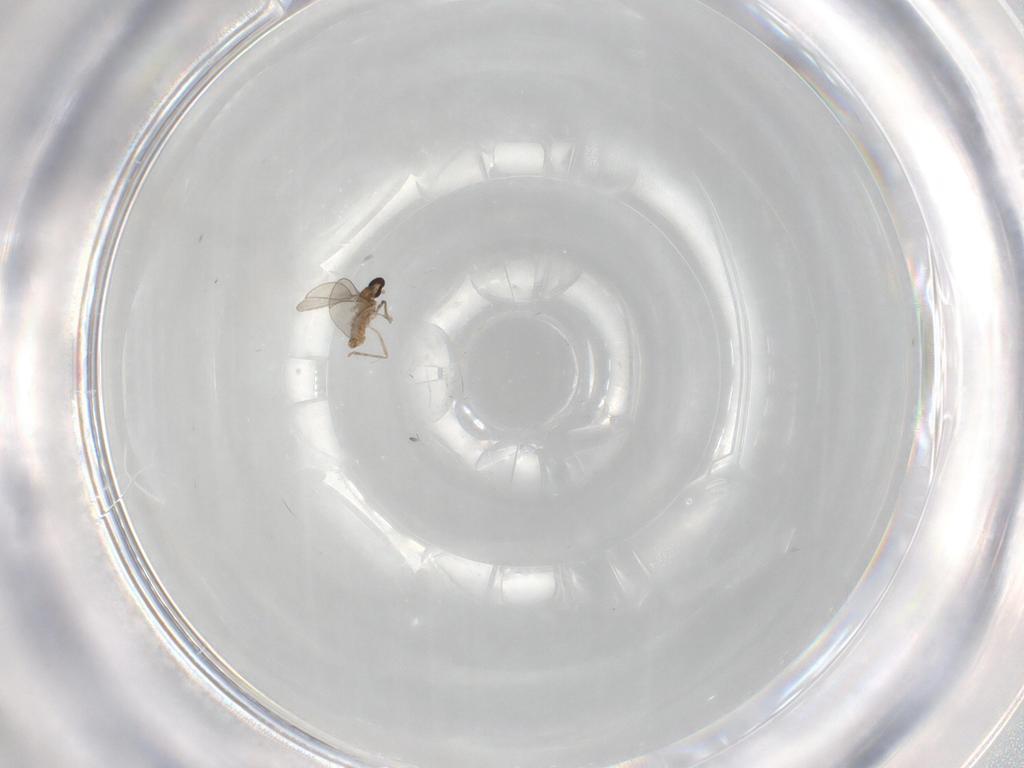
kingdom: Animalia
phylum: Arthropoda
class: Insecta
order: Diptera
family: Cecidomyiidae
